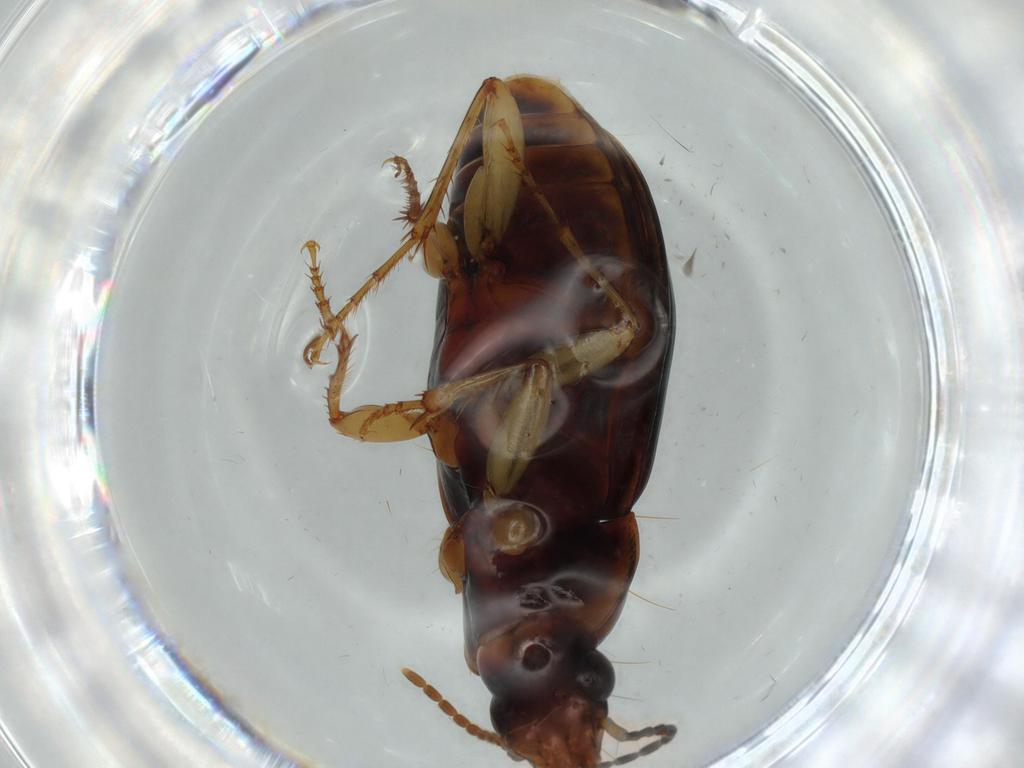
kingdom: Animalia
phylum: Arthropoda
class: Insecta
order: Coleoptera
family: Carabidae
